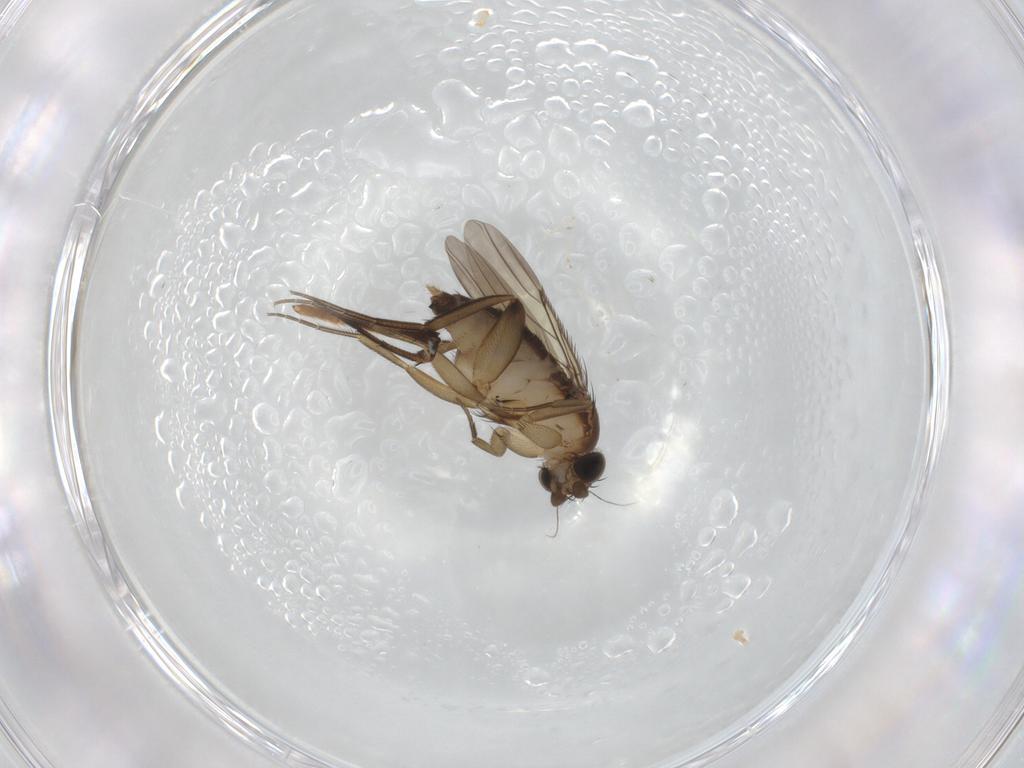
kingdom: Animalia
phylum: Arthropoda
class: Insecta
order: Diptera
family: Phoridae
